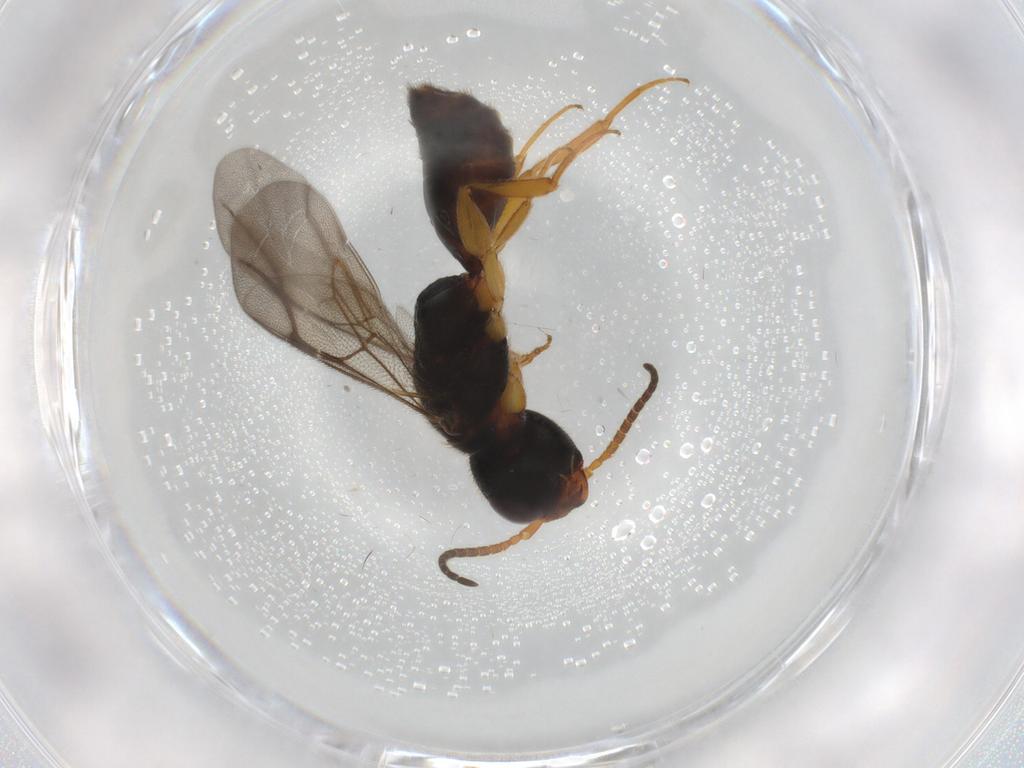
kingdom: Animalia
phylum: Arthropoda
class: Insecta
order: Hymenoptera
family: Bethylidae
